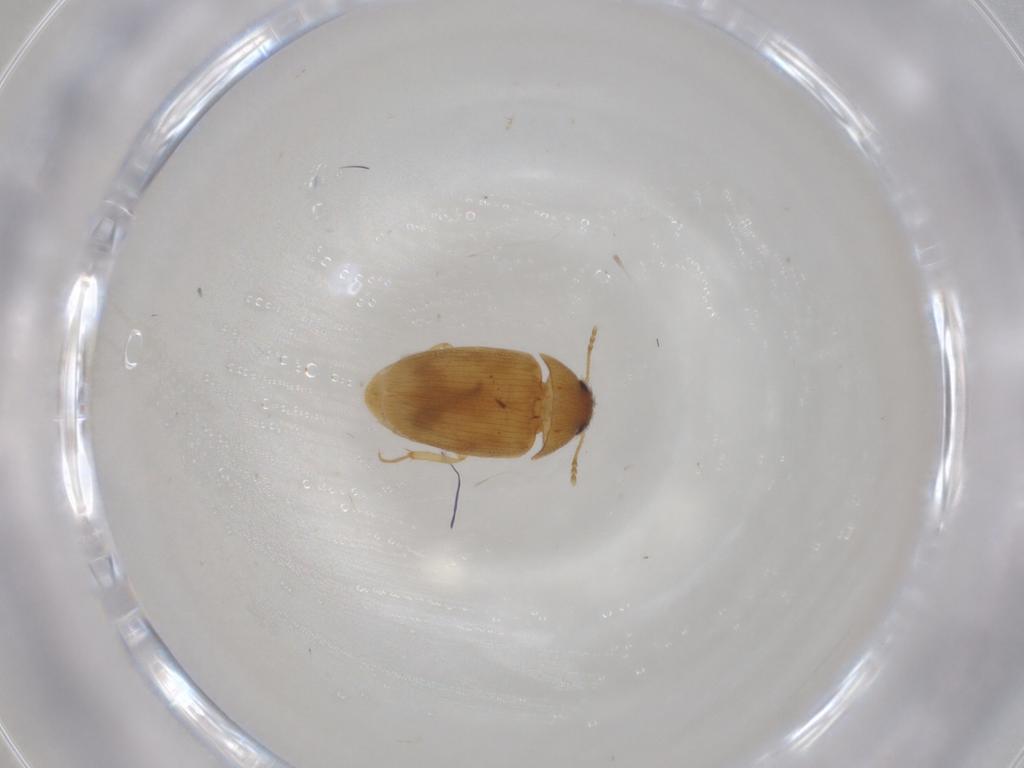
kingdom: Animalia
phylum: Arthropoda
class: Insecta
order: Coleoptera
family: Mycetophagidae
